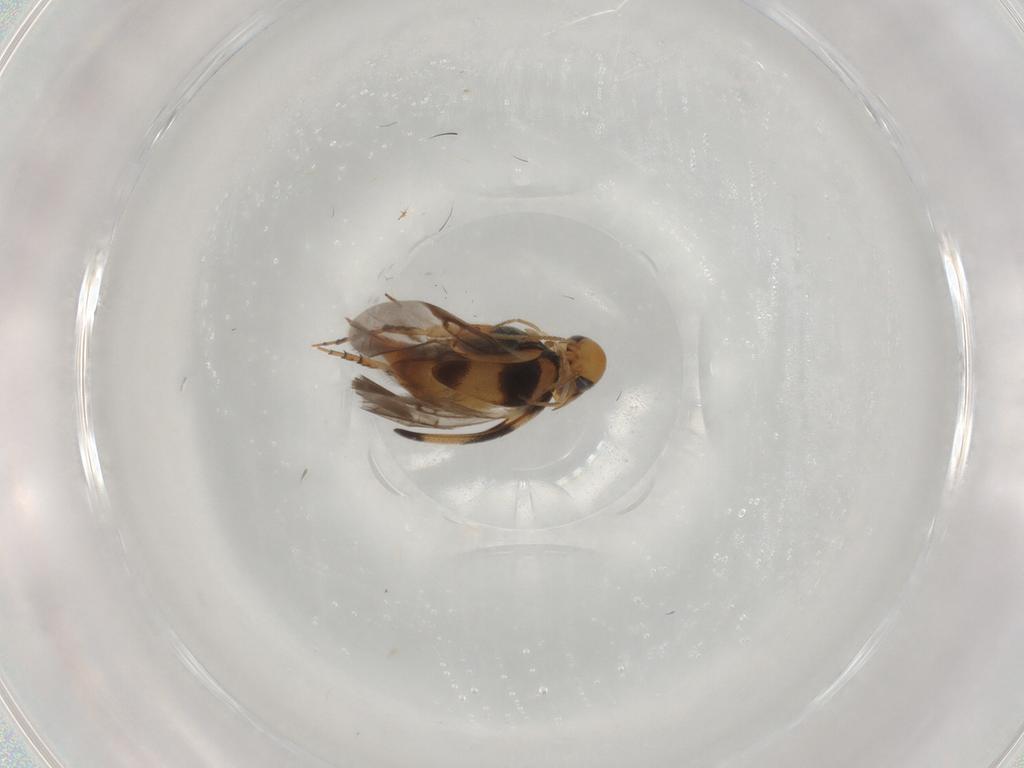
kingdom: Animalia
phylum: Arthropoda
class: Insecta
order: Coleoptera
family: Mordellidae
